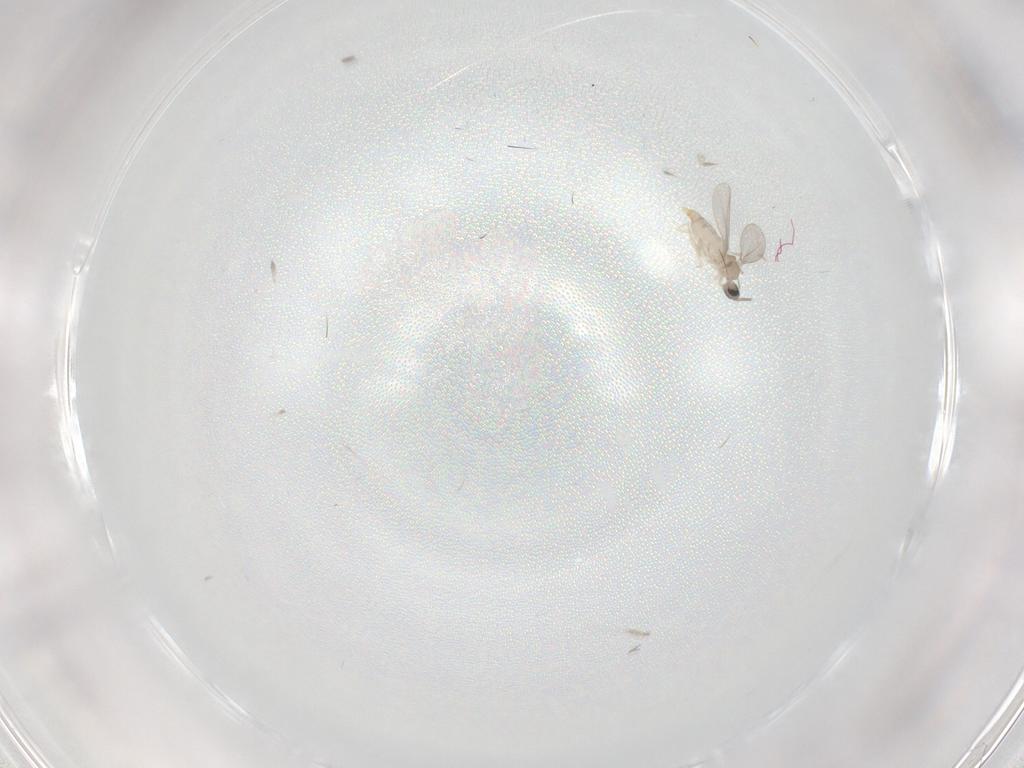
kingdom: Animalia
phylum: Arthropoda
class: Insecta
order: Diptera
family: Cecidomyiidae
